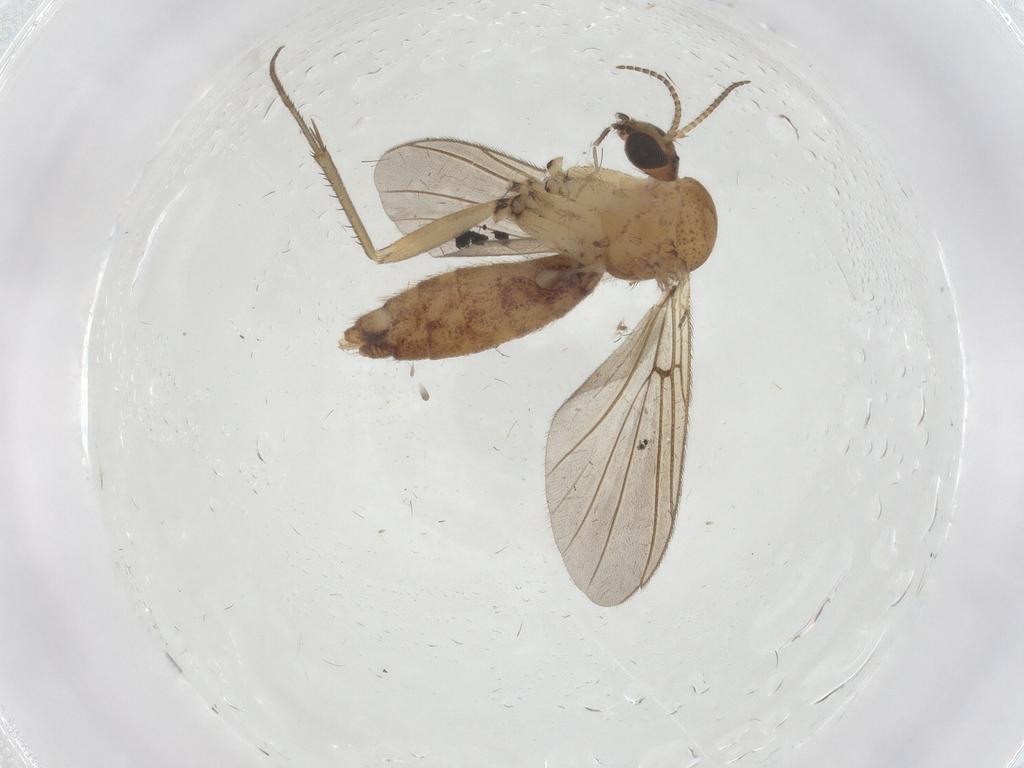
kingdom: Animalia
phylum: Arthropoda
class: Insecta
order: Diptera
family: Mycetophilidae
